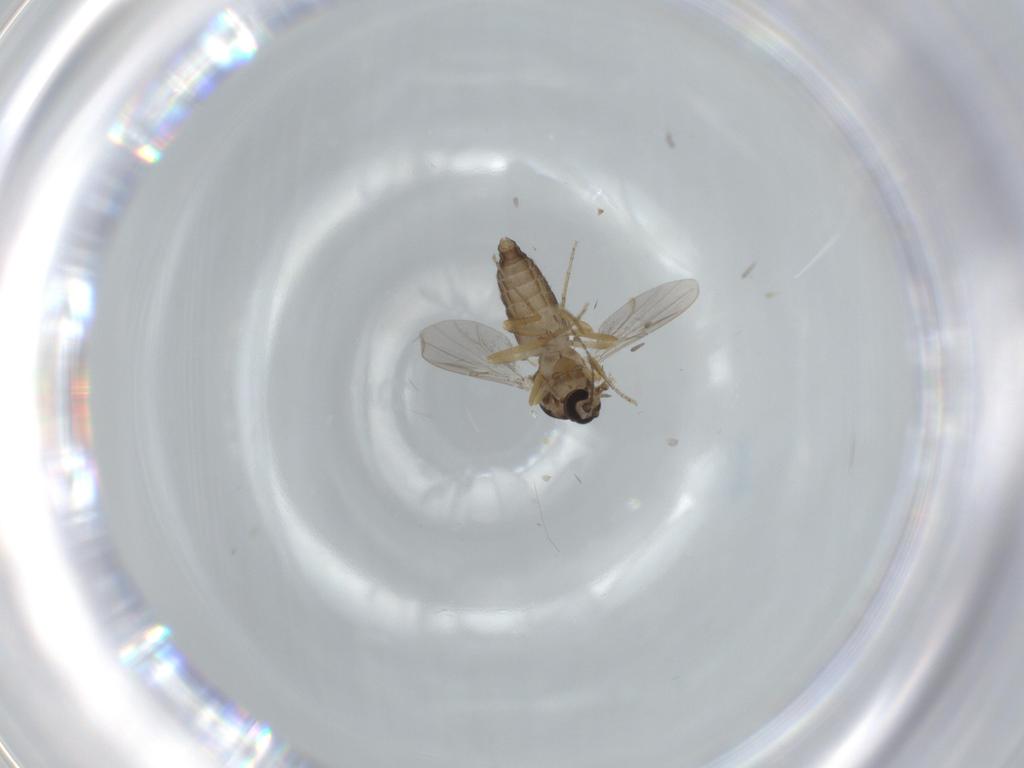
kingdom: Animalia
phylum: Arthropoda
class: Insecta
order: Diptera
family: Ceratopogonidae
